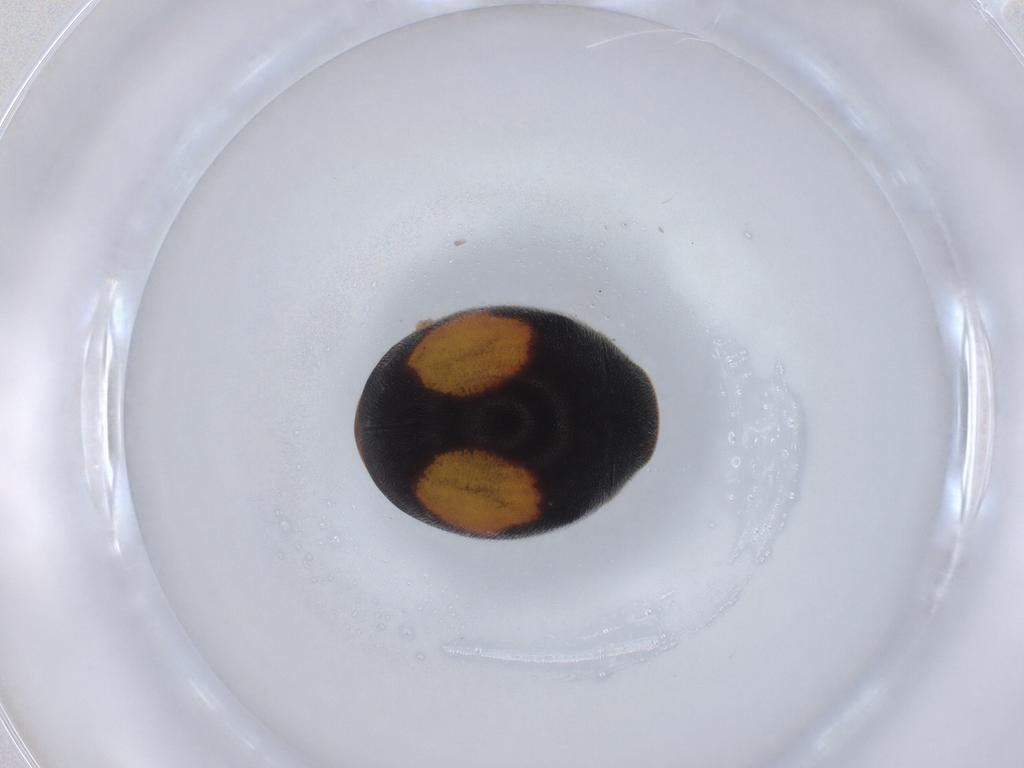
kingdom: Animalia
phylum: Arthropoda
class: Insecta
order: Coleoptera
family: Coccinellidae
